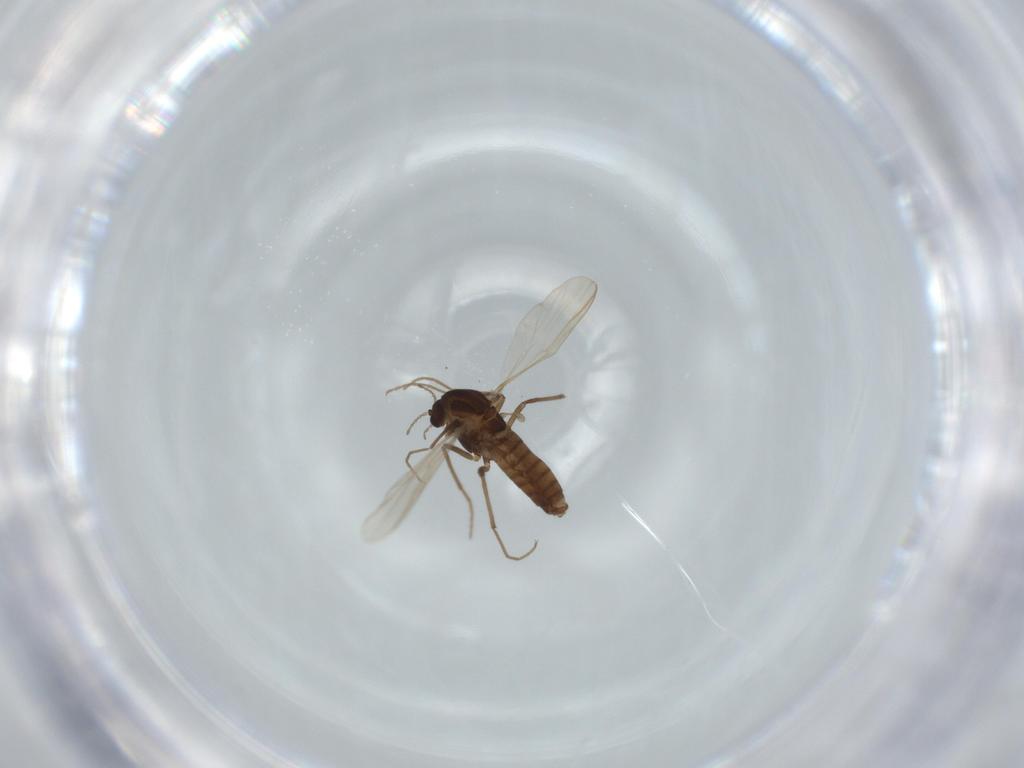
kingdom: Animalia
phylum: Arthropoda
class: Insecta
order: Diptera
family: Chironomidae
